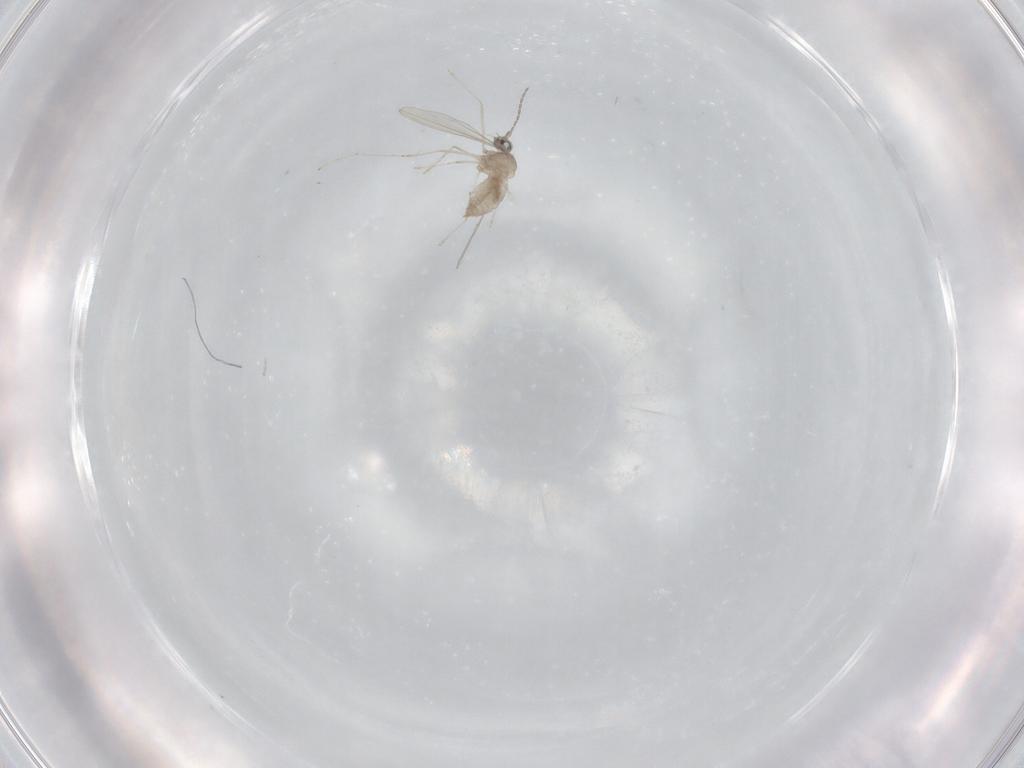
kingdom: Animalia
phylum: Arthropoda
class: Insecta
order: Diptera
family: Cecidomyiidae
